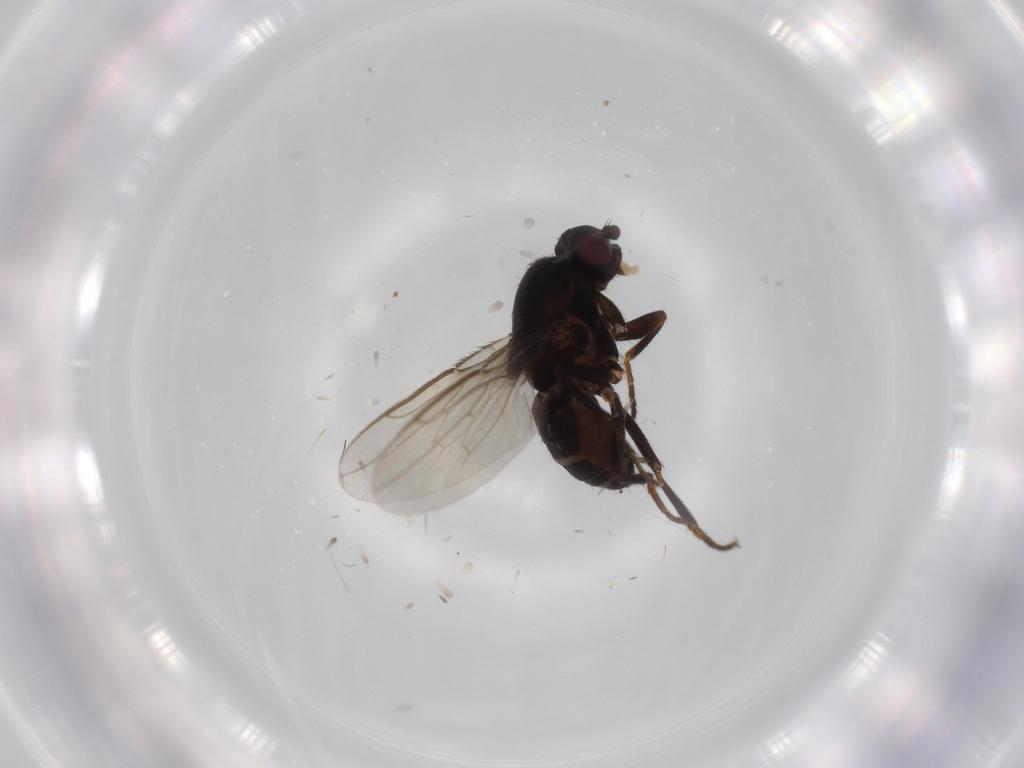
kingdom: Animalia
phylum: Arthropoda
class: Insecta
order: Diptera
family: Sphaeroceridae
